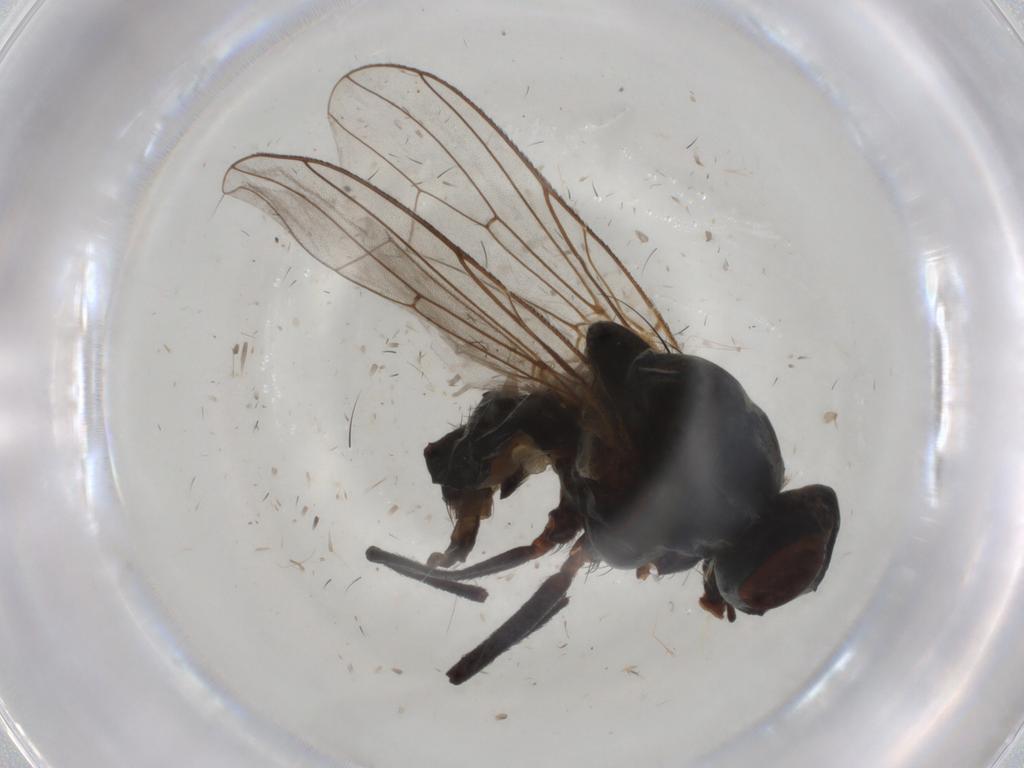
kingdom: Animalia
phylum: Arthropoda
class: Insecta
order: Diptera
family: Anthomyiidae
